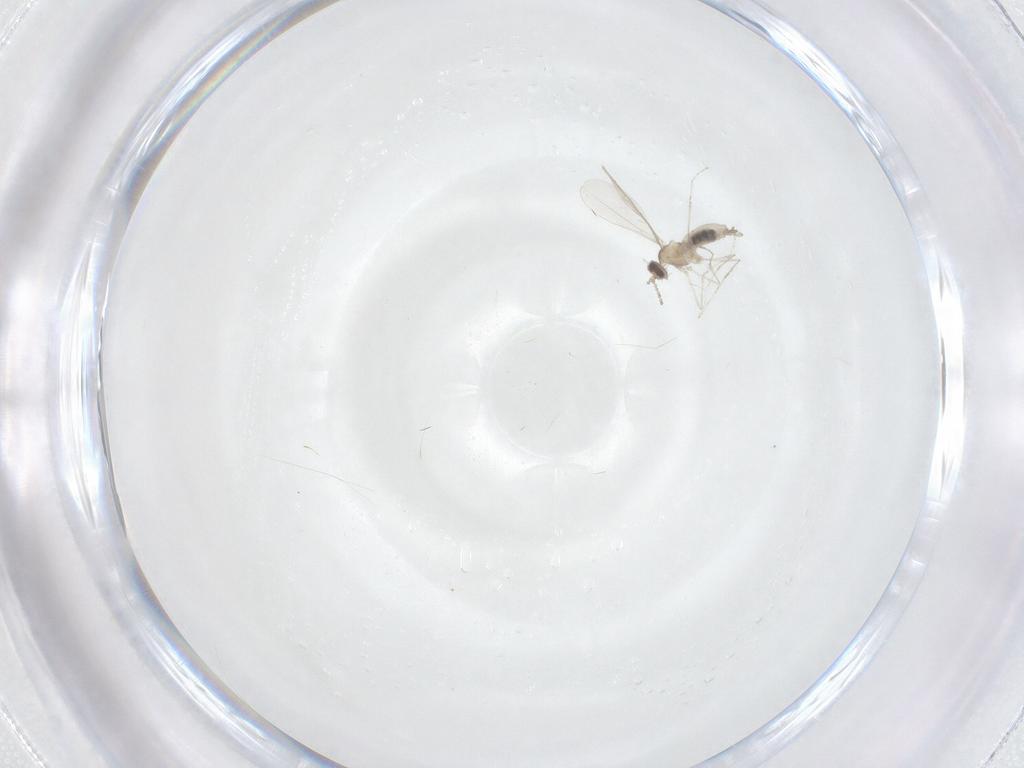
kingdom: Animalia
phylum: Arthropoda
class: Insecta
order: Diptera
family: Cecidomyiidae
